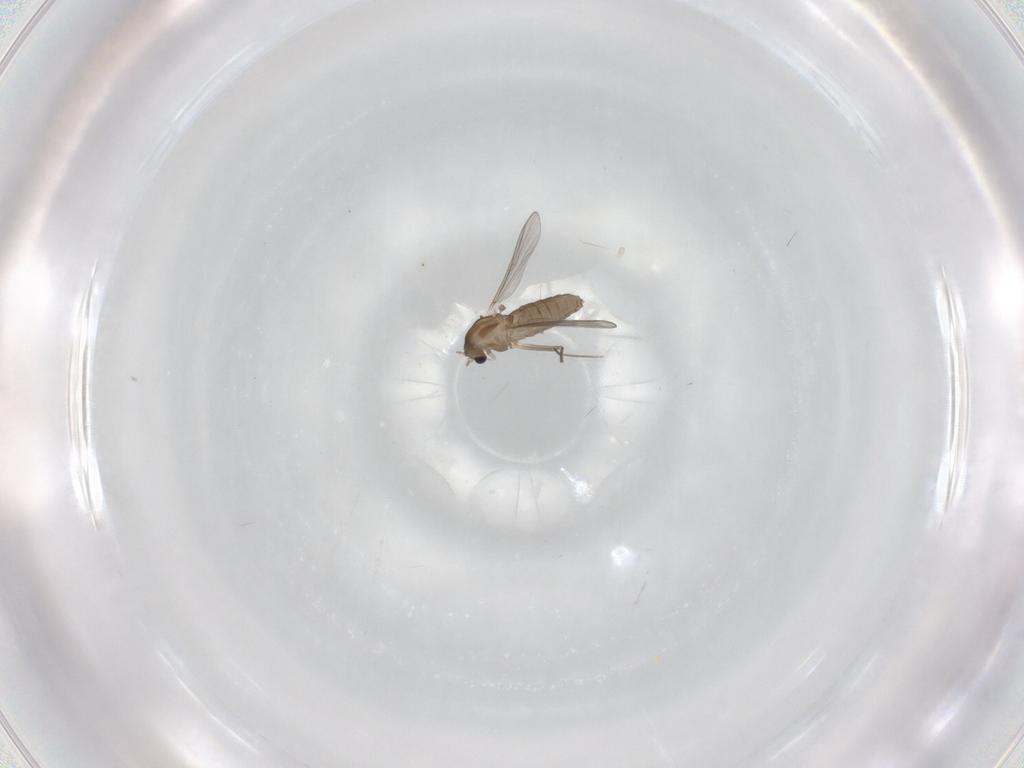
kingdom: Animalia
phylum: Arthropoda
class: Insecta
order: Diptera
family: Chironomidae
